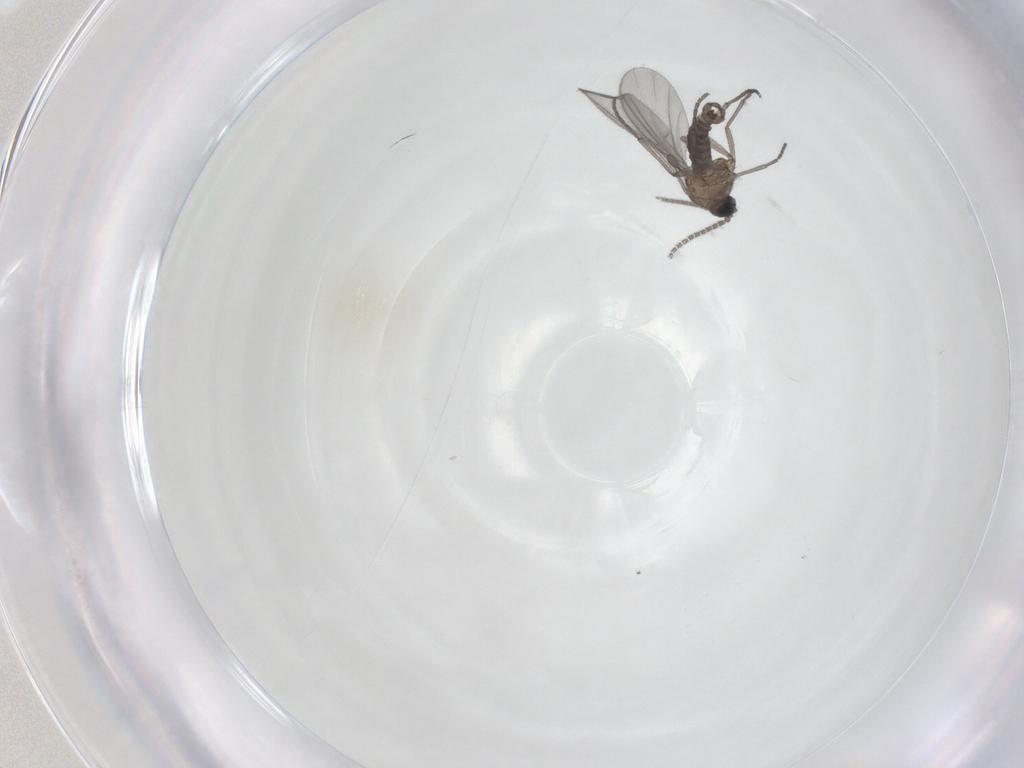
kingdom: Animalia
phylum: Arthropoda
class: Insecta
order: Diptera
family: Sciaridae
